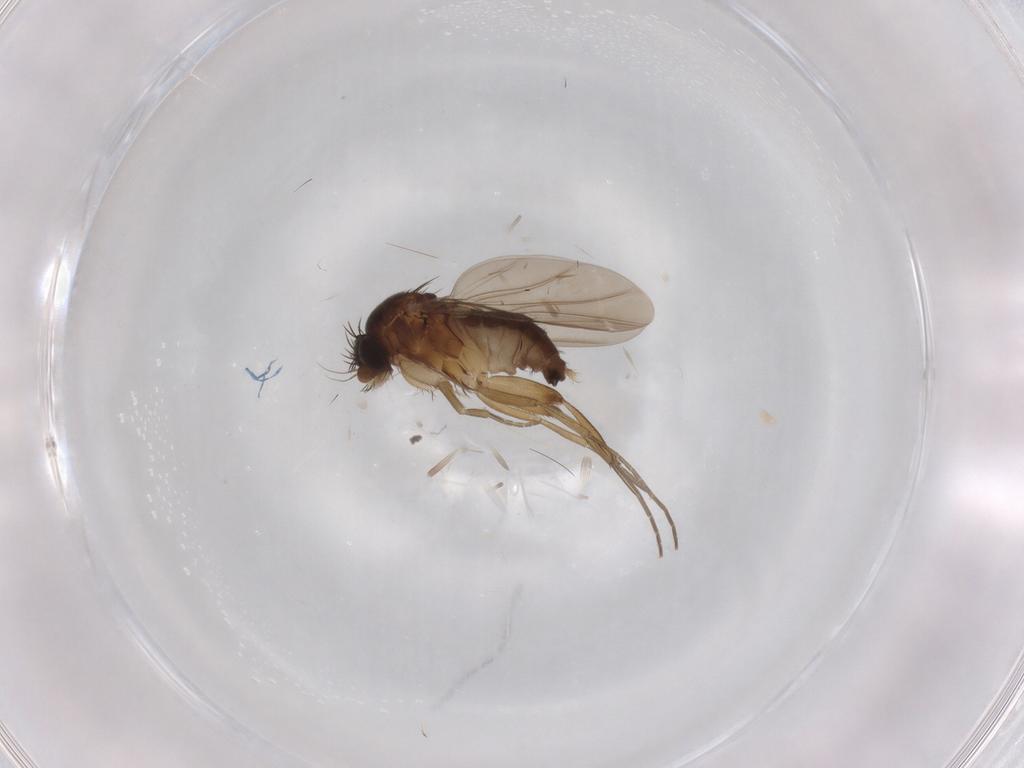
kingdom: Animalia
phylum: Arthropoda
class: Insecta
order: Diptera
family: Phoridae
